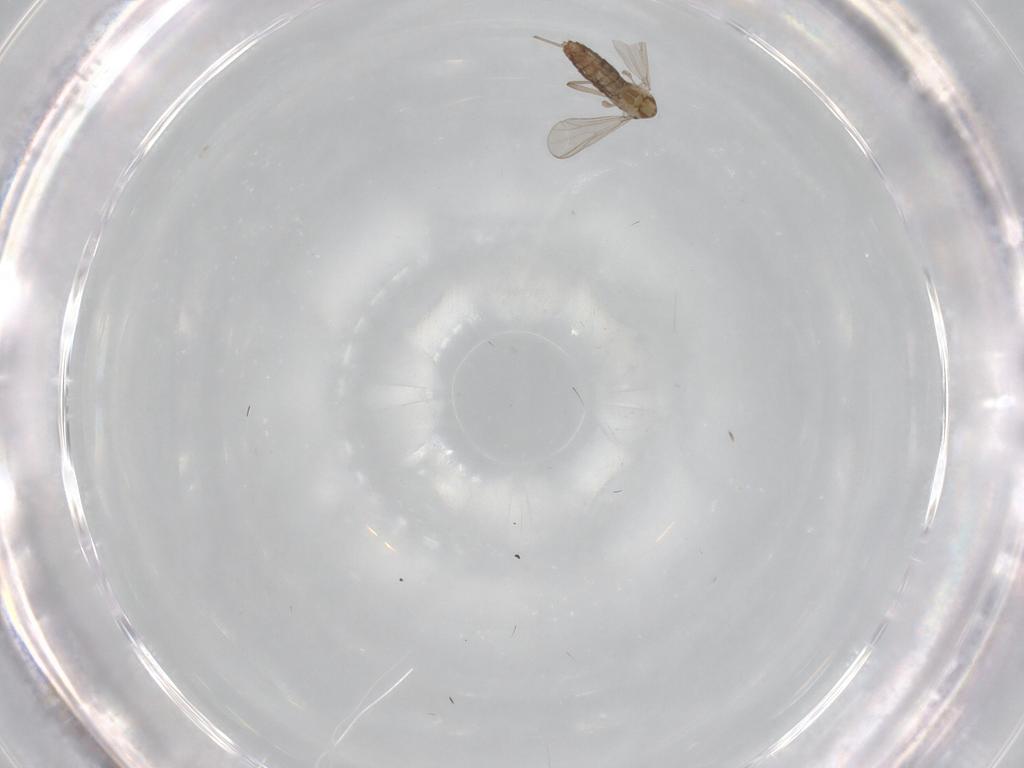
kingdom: Animalia
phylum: Arthropoda
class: Insecta
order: Diptera
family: Chironomidae
